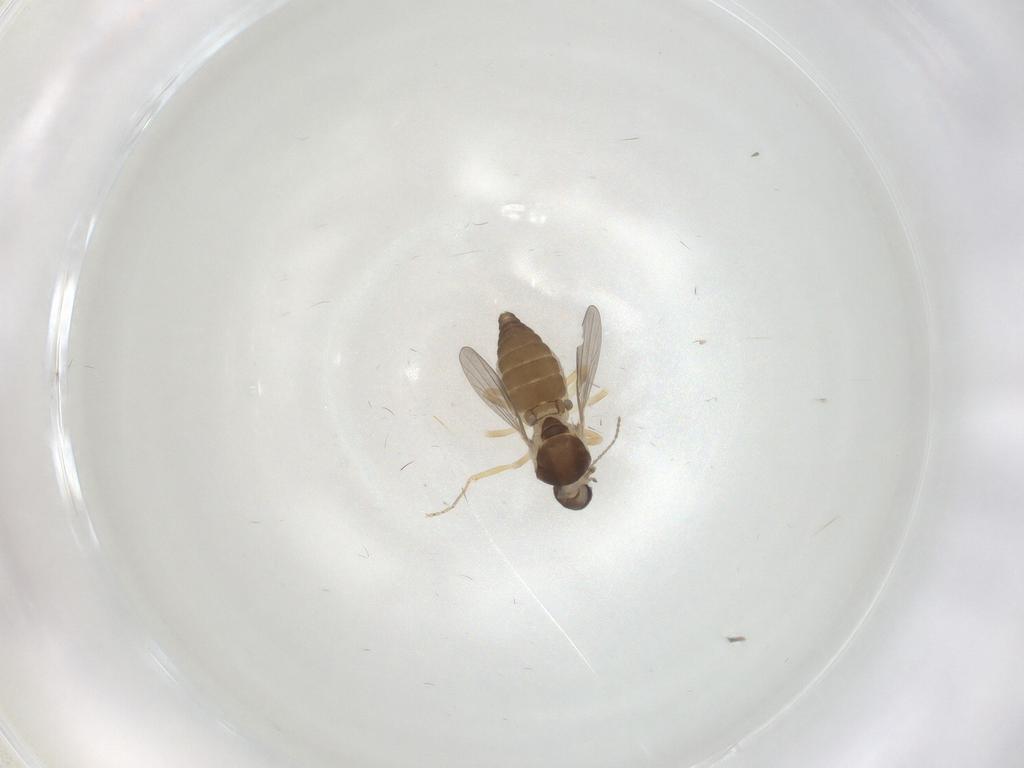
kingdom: Animalia
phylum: Arthropoda
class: Insecta
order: Diptera
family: Ceratopogonidae
